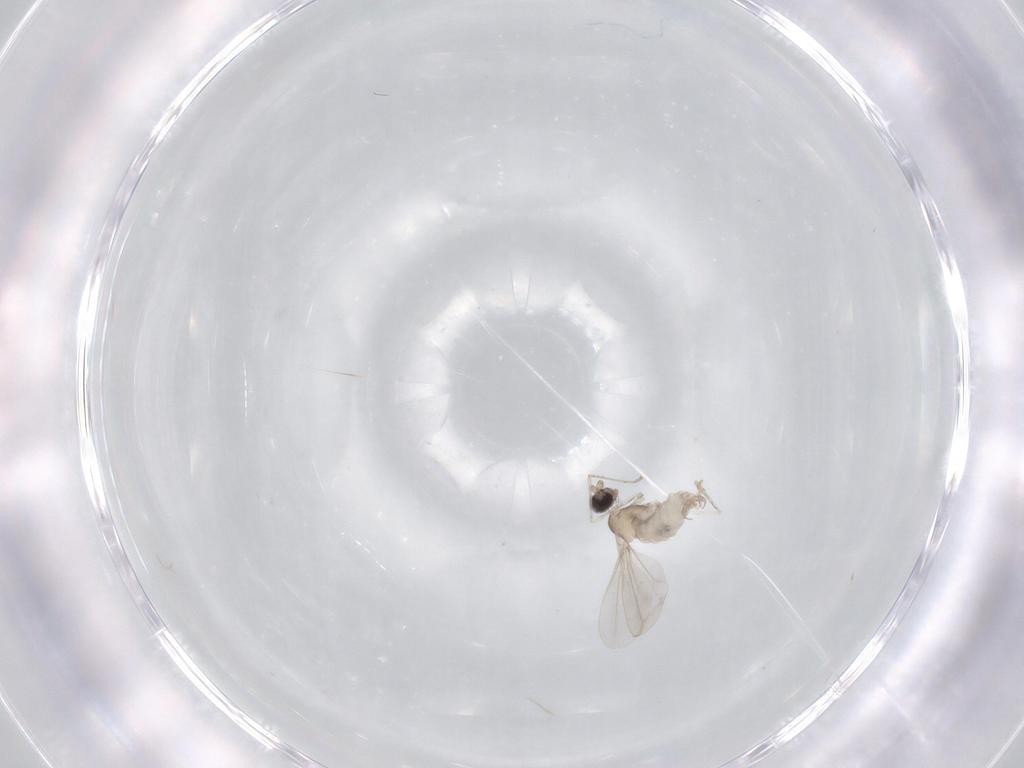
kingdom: Animalia
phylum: Arthropoda
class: Insecta
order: Diptera
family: Cecidomyiidae
